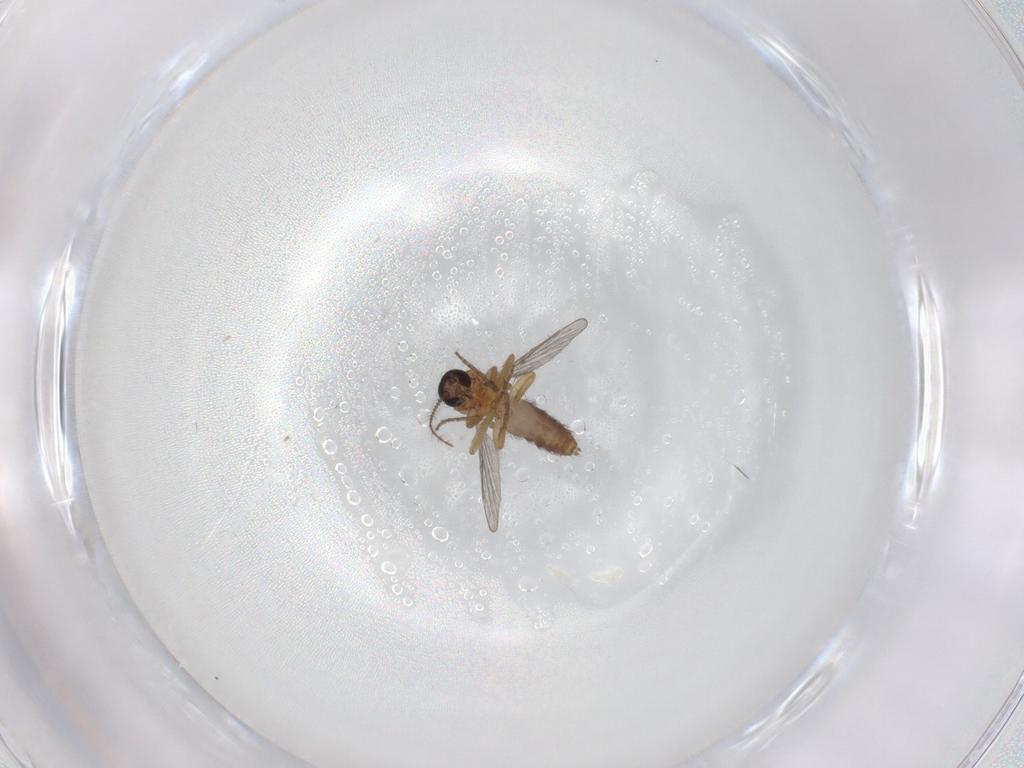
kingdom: Animalia
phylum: Arthropoda
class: Insecta
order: Diptera
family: Ceratopogonidae
